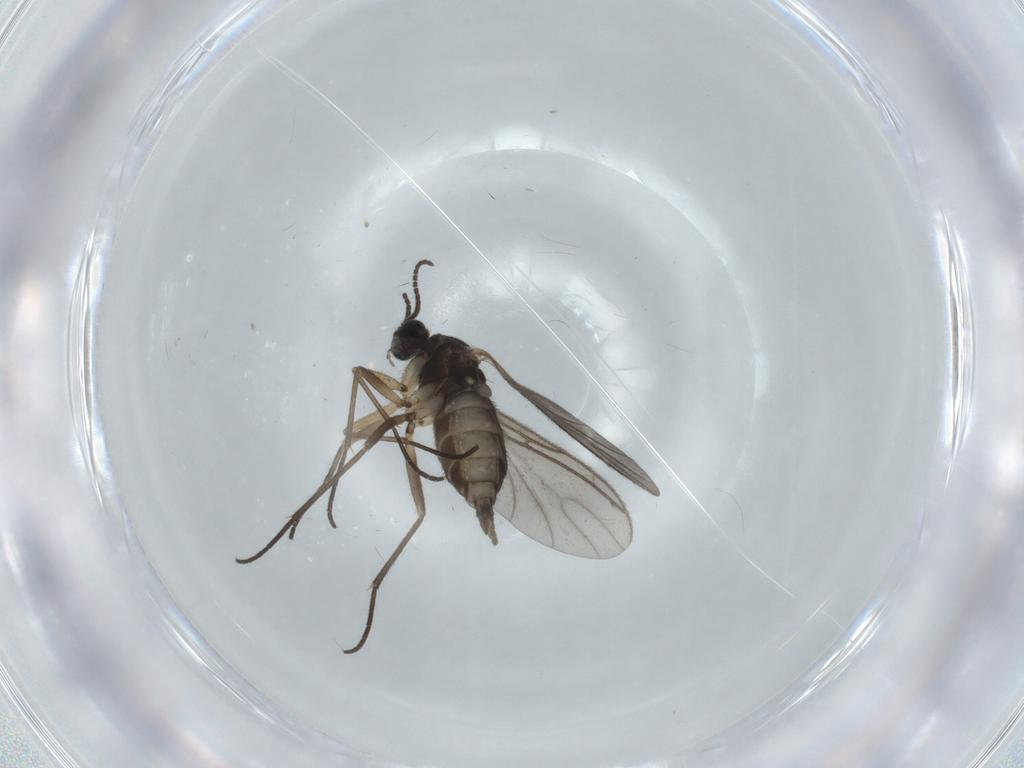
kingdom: Animalia
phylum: Arthropoda
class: Insecta
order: Diptera
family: Sciaridae
